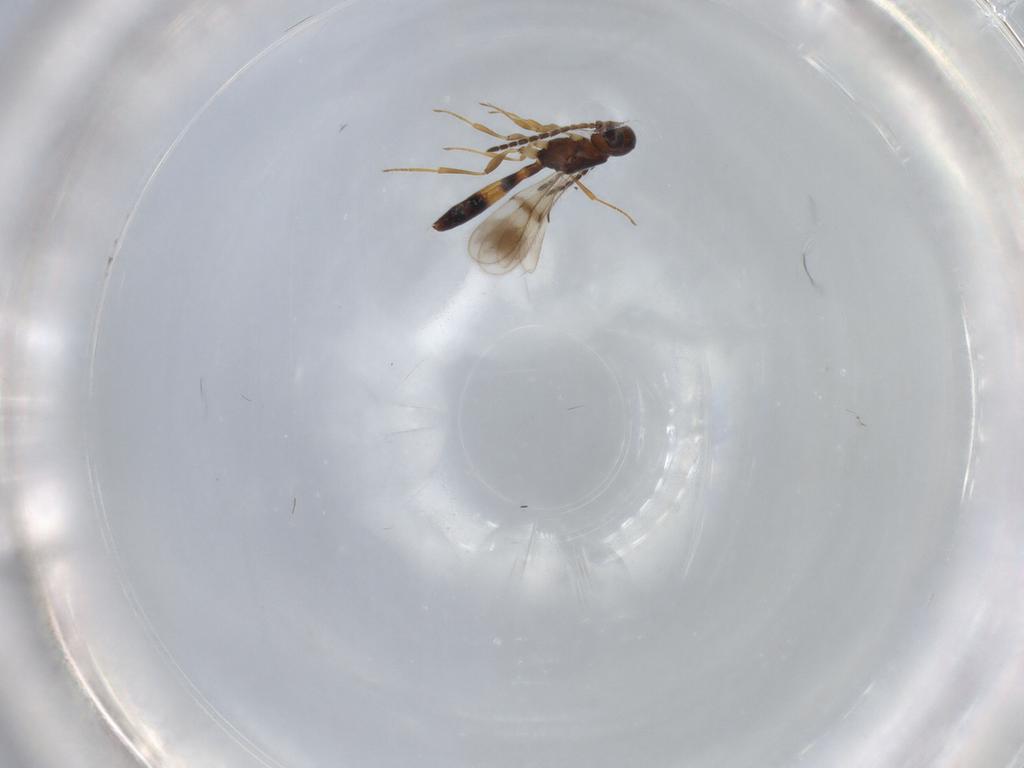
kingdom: Animalia
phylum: Arthropoda
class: Insecta
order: Hymenoptera
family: Scelionidae
